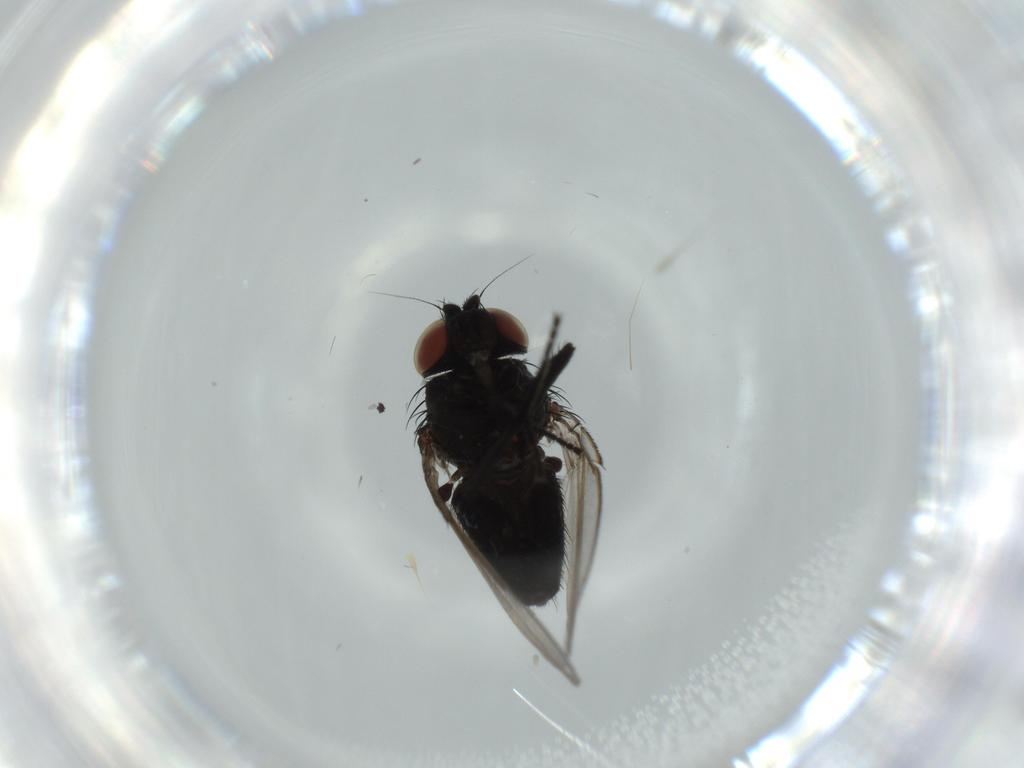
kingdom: Animalia
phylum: Arthropoda
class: Insecta
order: Diptera
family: Milichiidae
